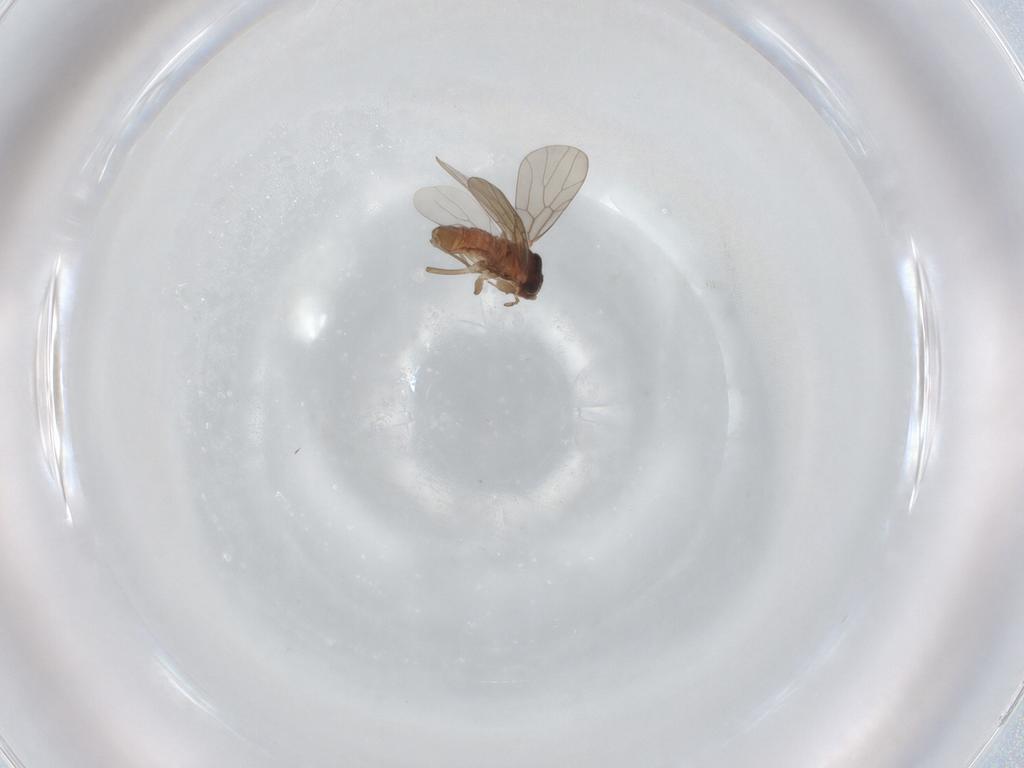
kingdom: Animalia
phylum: Arthropoda
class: Insecta
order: Psocodea
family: Lepidopsocidae
